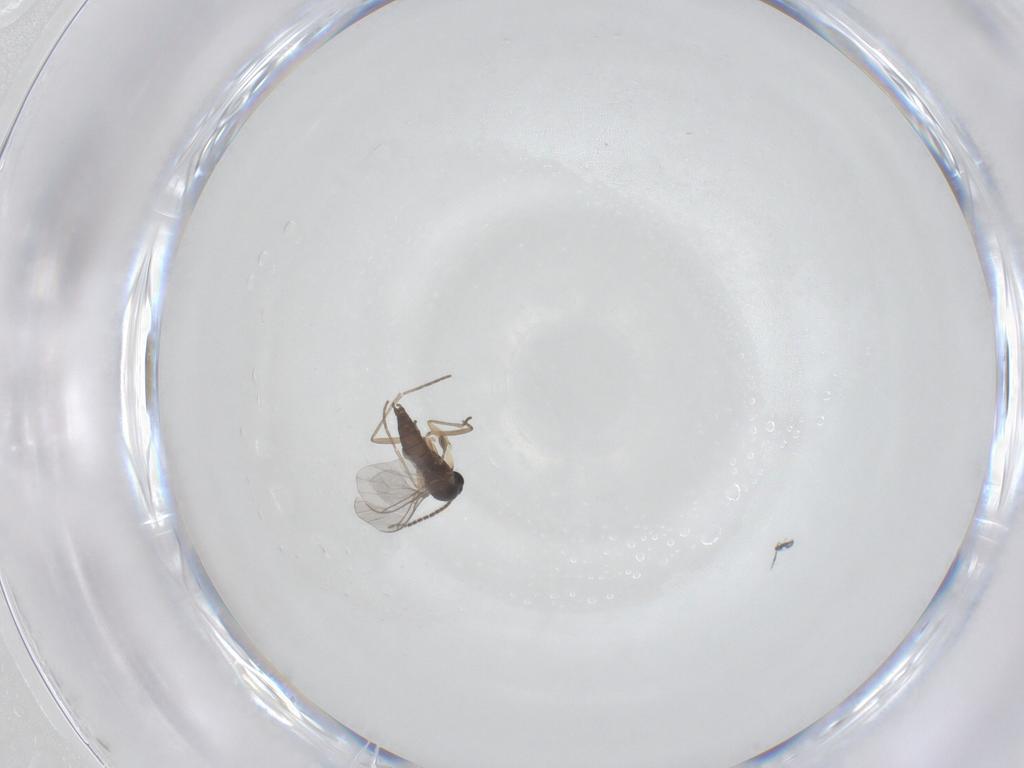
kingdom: Animalia
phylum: Arthropoda
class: Insecta
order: Diptera
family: Sciaridae
